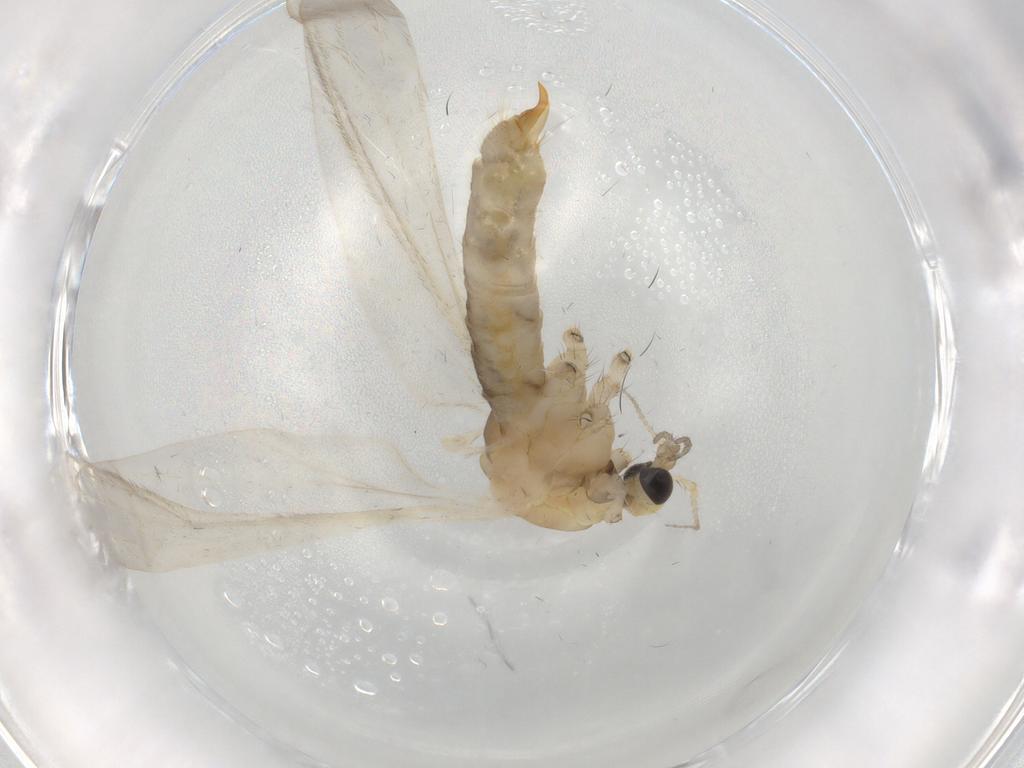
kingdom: Animalia
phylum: Arthropoda
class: Insecta
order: Diptera
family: Limoniidae
